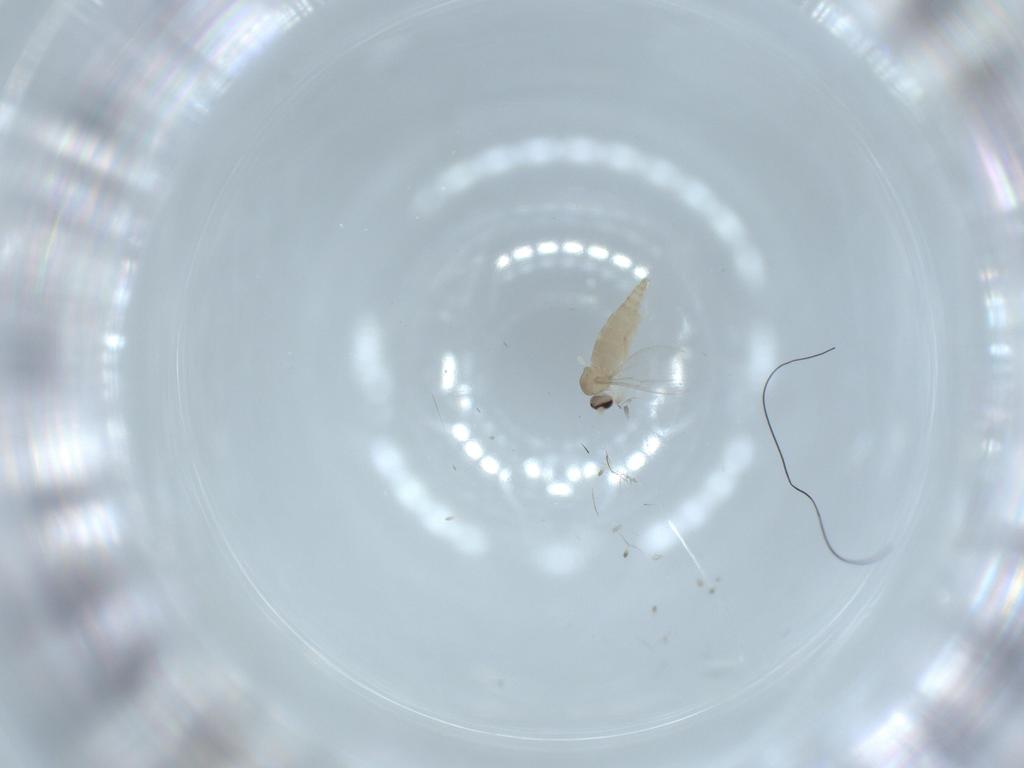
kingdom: Animalia
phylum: Arthropoda
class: Insecta
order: Diptera
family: Cecidomyiidae
